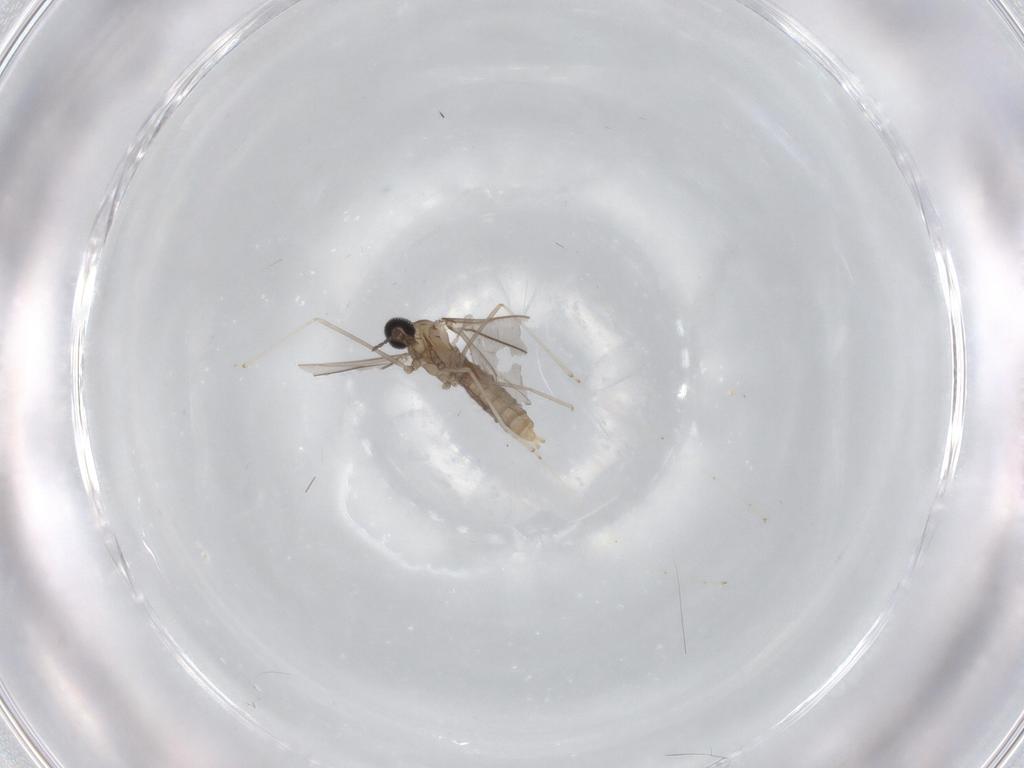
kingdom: Animalia
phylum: Arthropoda
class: Insecta
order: Diptera
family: Cecidomyiidae
